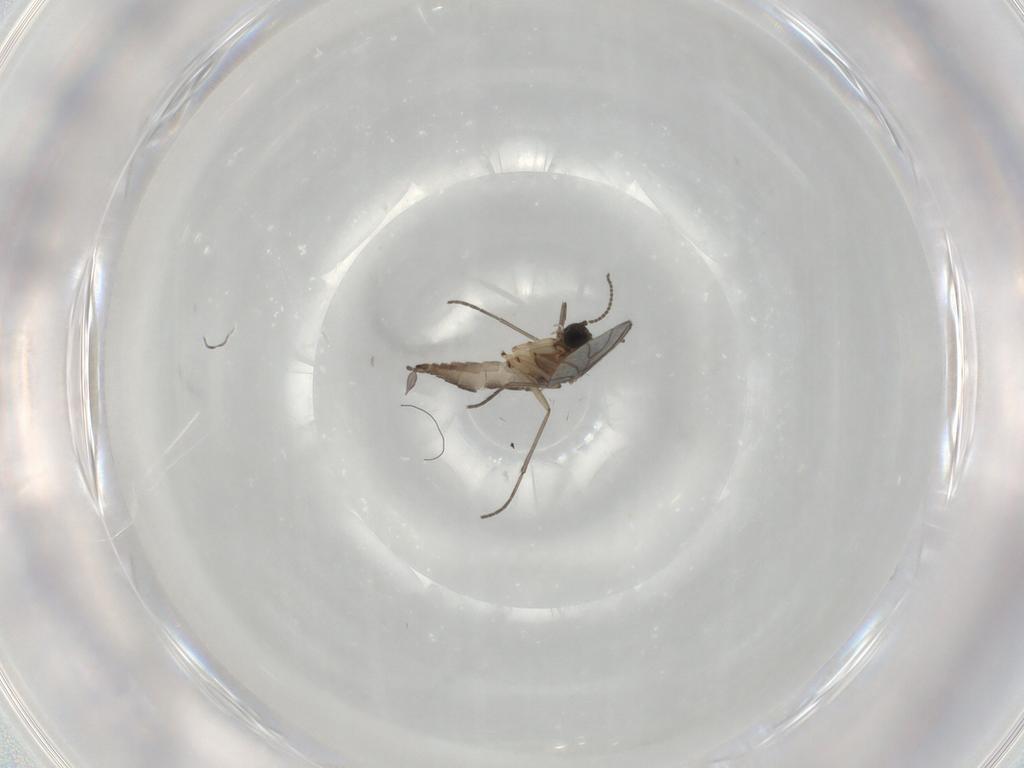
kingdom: Animalia
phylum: Arthropoda
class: Insecta
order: Diptera
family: Sciaridae
